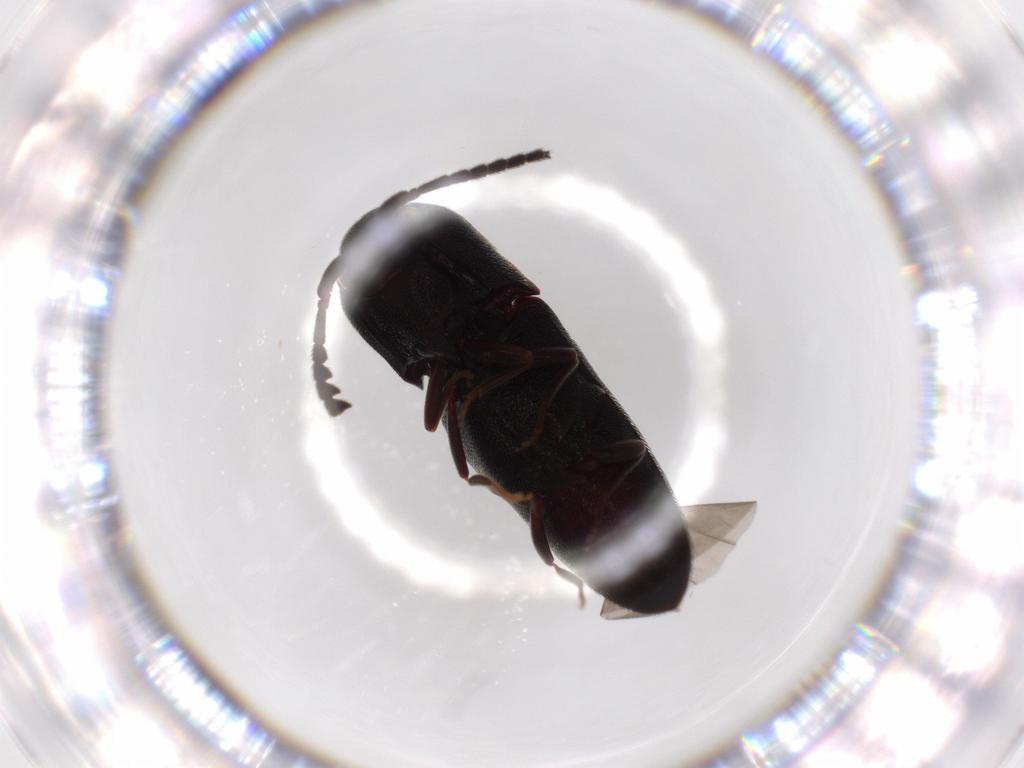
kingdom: Animalia
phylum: Arthropoda
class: Insecta
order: Coleoptera
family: Eucnemidae
